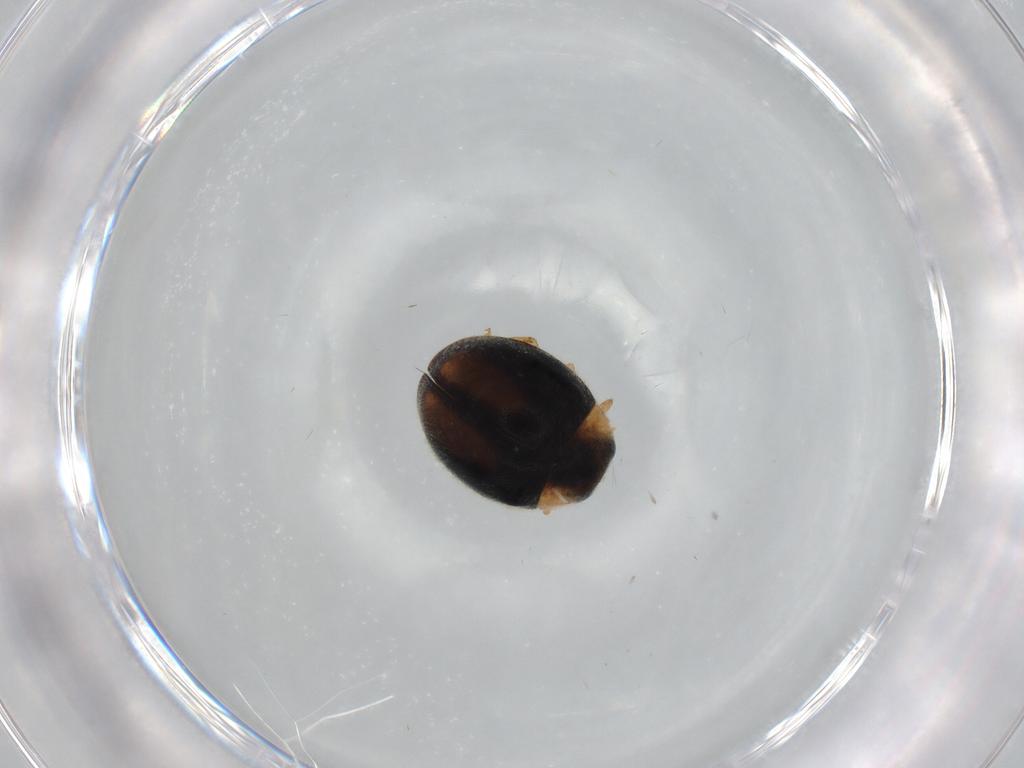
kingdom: Animalia
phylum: Arthropoda
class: Insecta
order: Coleoptera
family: Coccinellidae
